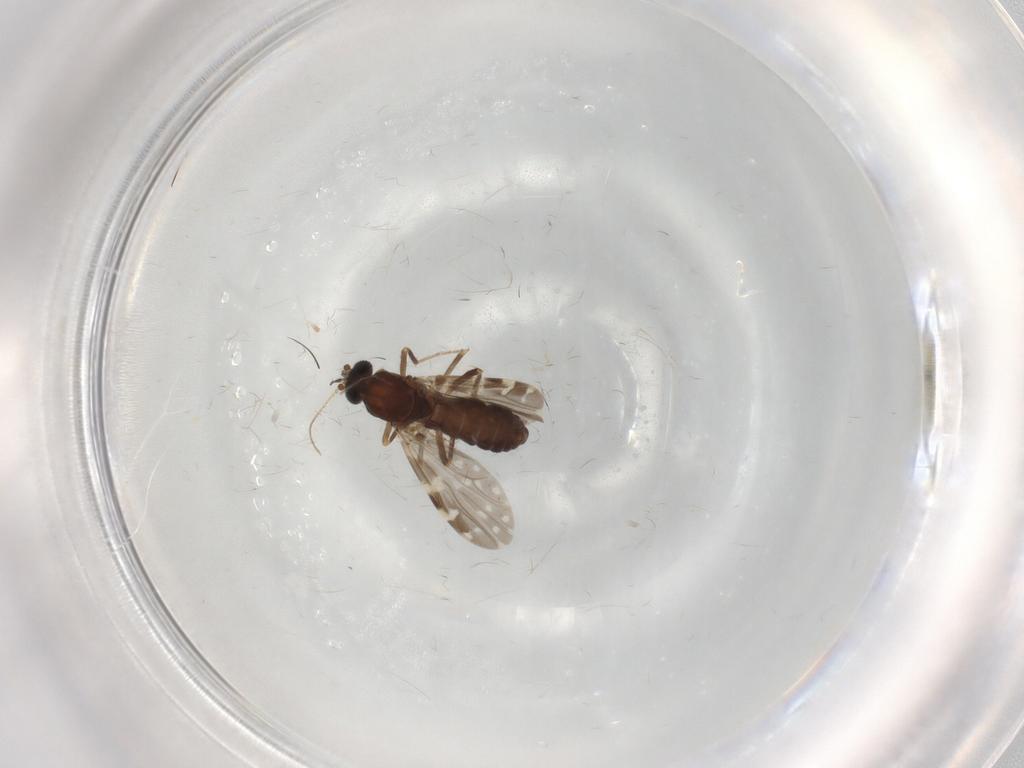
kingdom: Animalia
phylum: Arthropoda
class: Insecta
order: Diptera
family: Ceratopogonidae
